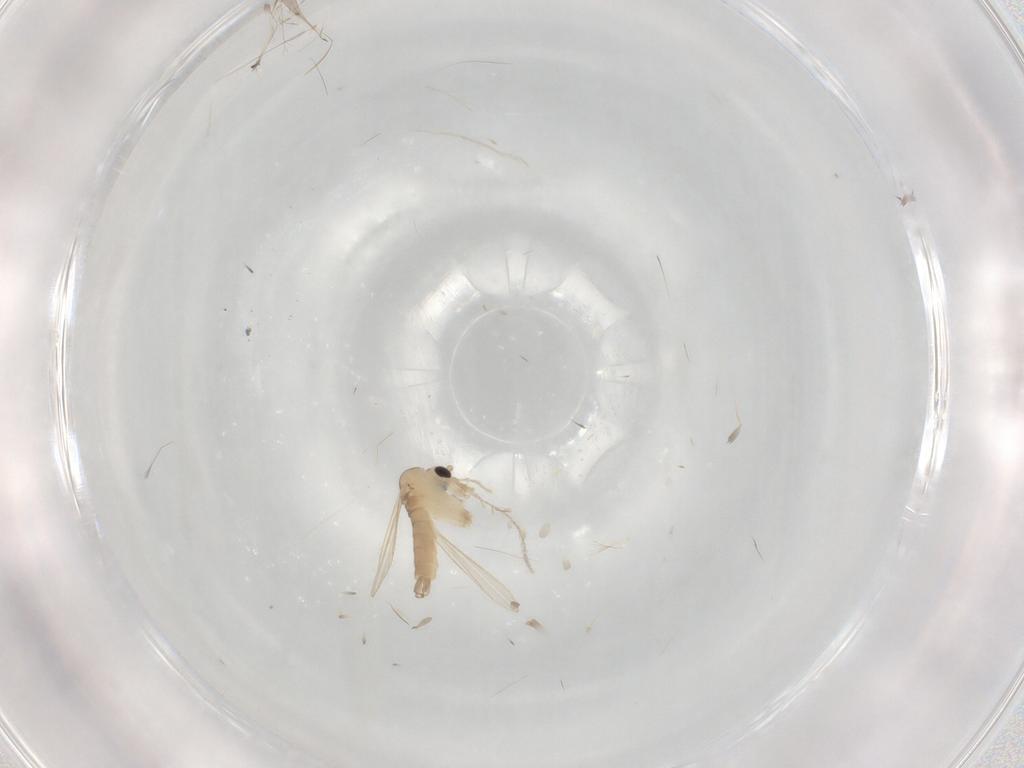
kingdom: Animalia
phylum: Arthropoda
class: Insecta
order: Diptera
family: Psychodidae
